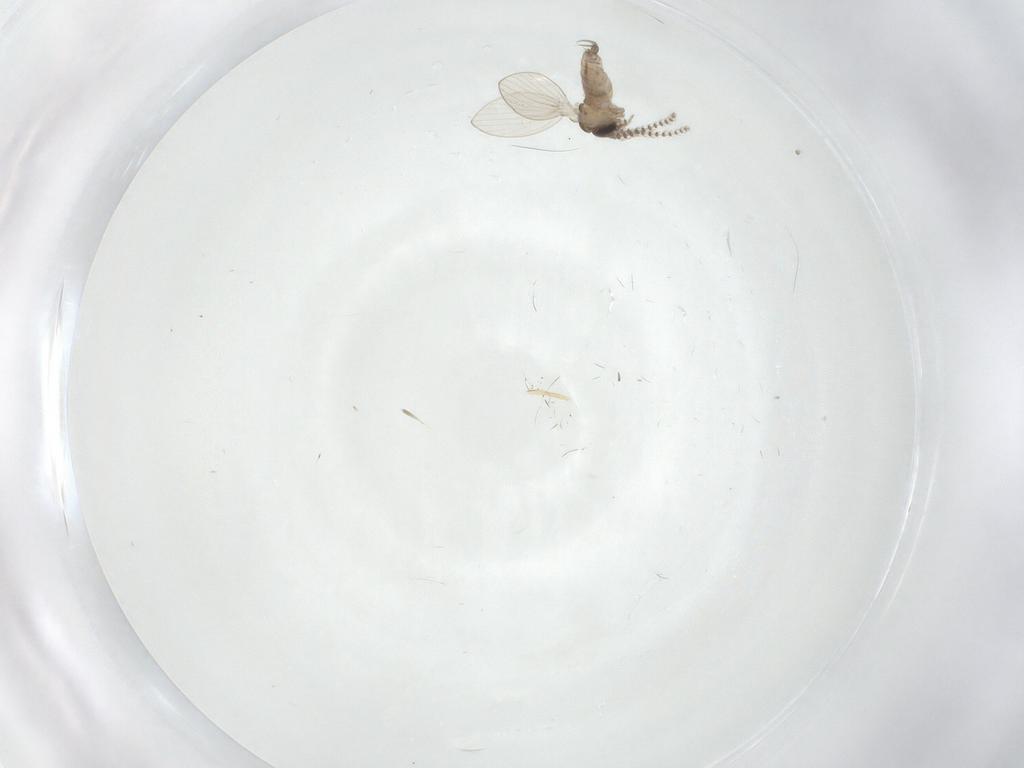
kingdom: Animalia
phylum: Arthropoda
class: Insecta
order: Diptera
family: Psychodidae
